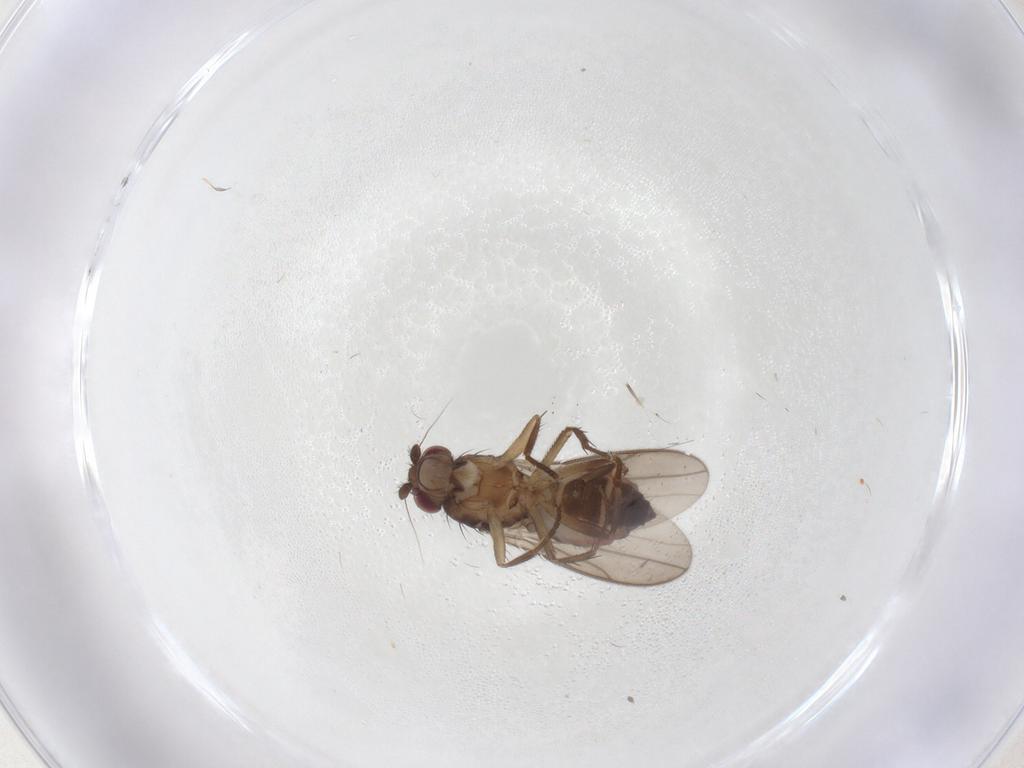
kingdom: Animalia
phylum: Arthropoda
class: Insecta
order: Diptera
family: Sphaeroceridae
